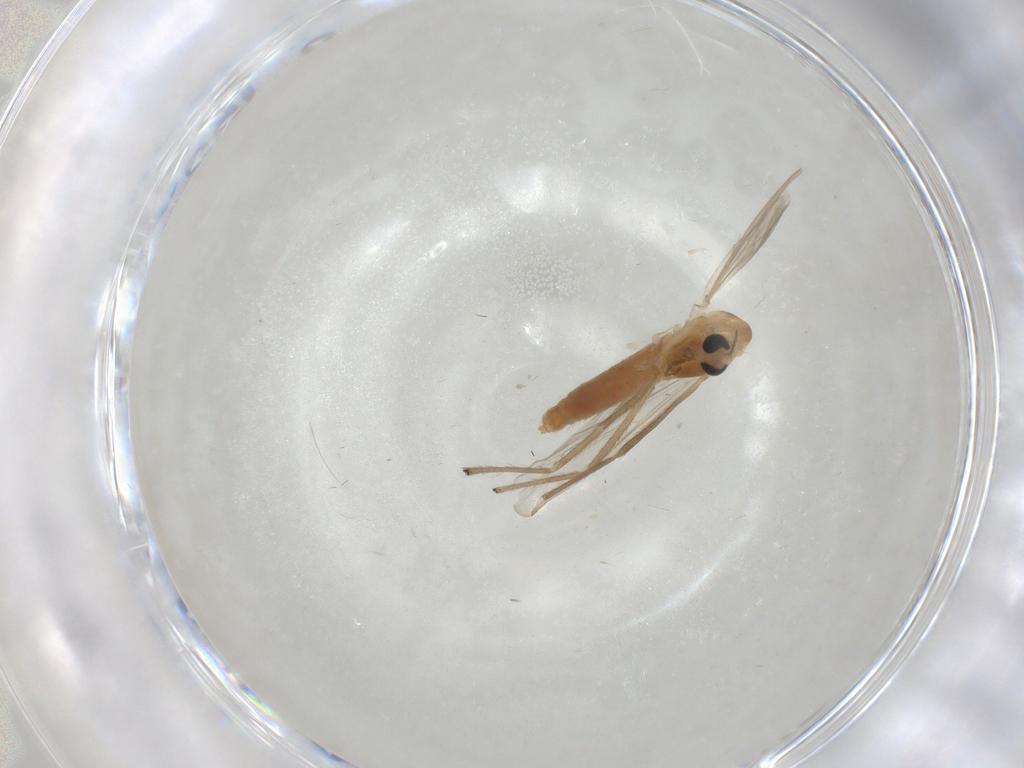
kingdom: Animalia
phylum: Arthropoda
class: Insecta
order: Diptera
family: Chironomidae
